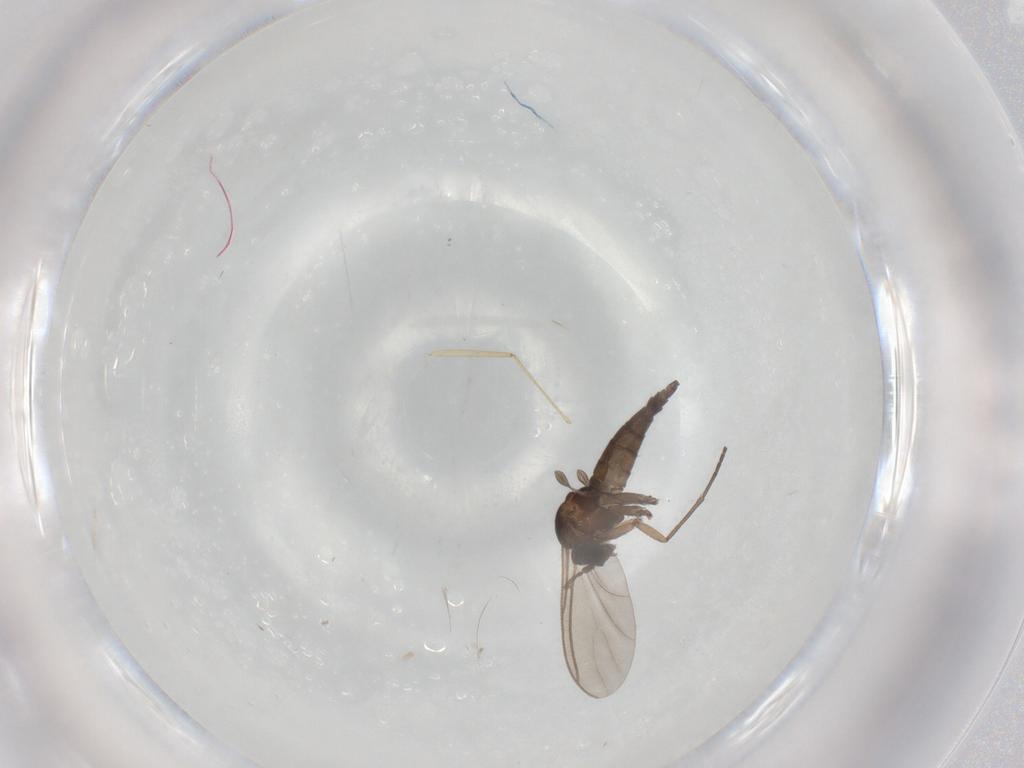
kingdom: Animalia
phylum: Arthropoda
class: Insecta
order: Diptera
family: Sciaridae
